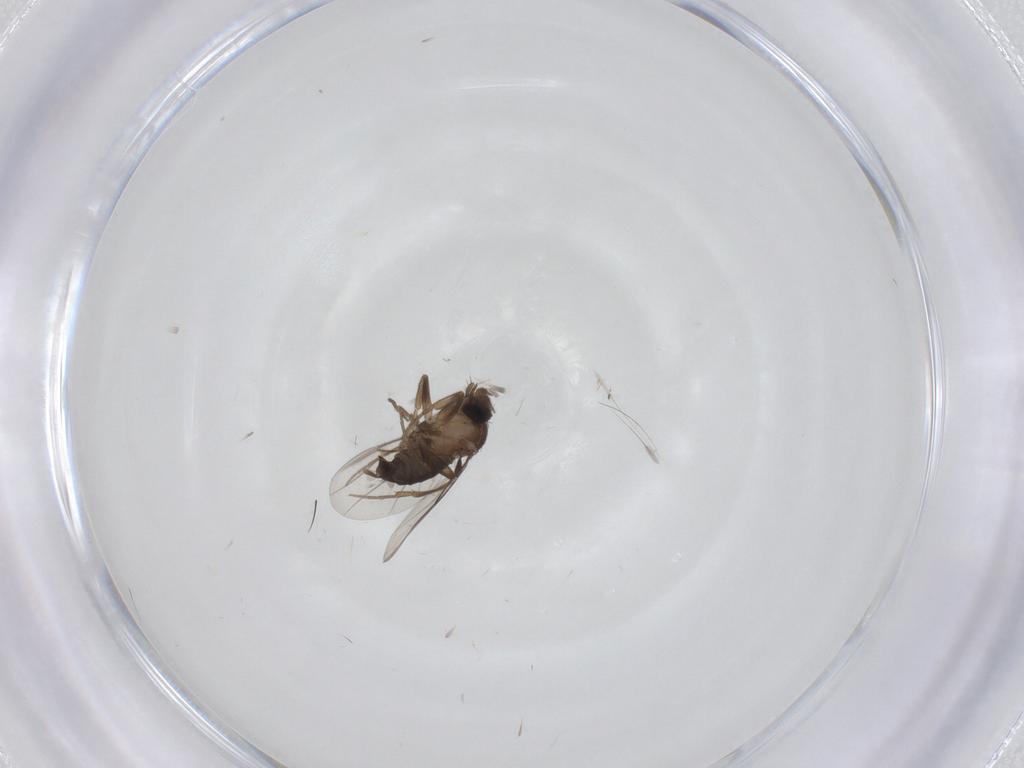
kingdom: Animalia
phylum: Arthropoda
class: Insecta
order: Diptera
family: Phoridae
